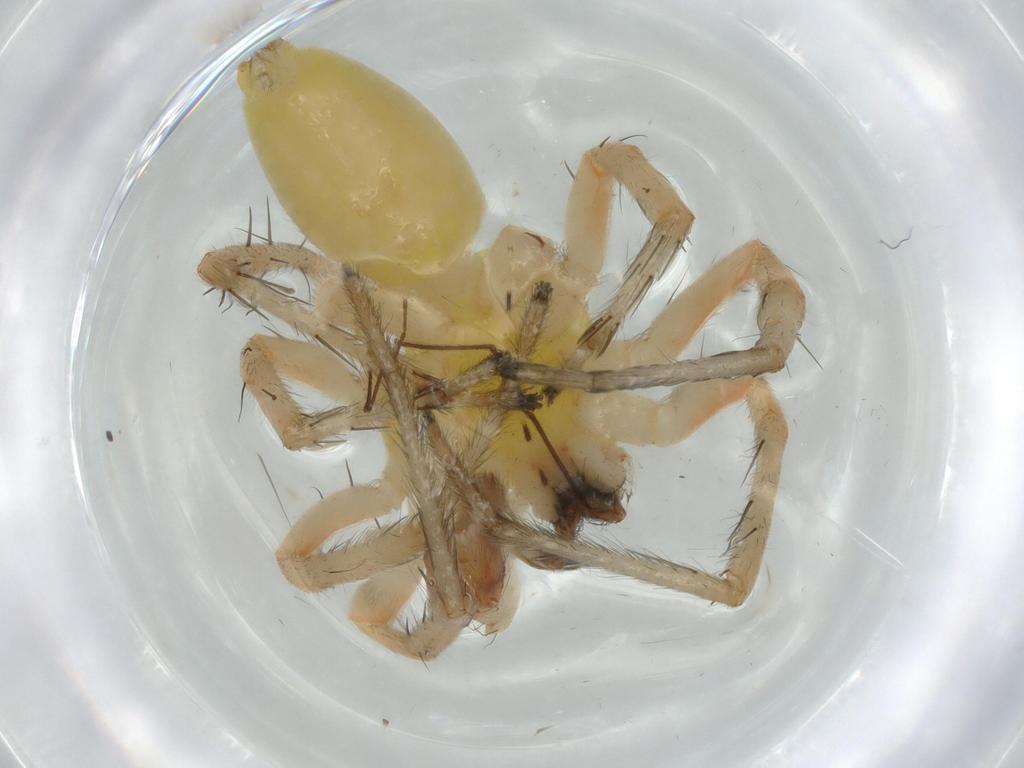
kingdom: Animalia
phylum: Arthropoda
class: Arachnida
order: Araneae
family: Anyphaenidae
